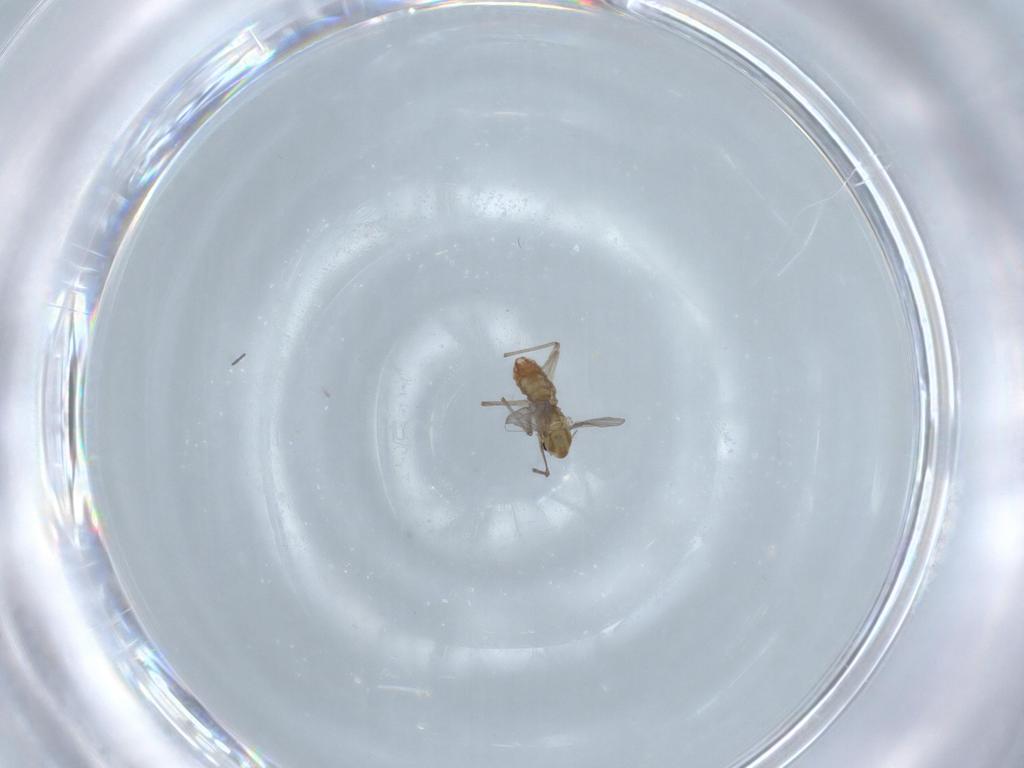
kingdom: Animalia
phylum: Arthropoda
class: Insecta
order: Diptera
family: Chironomidae
